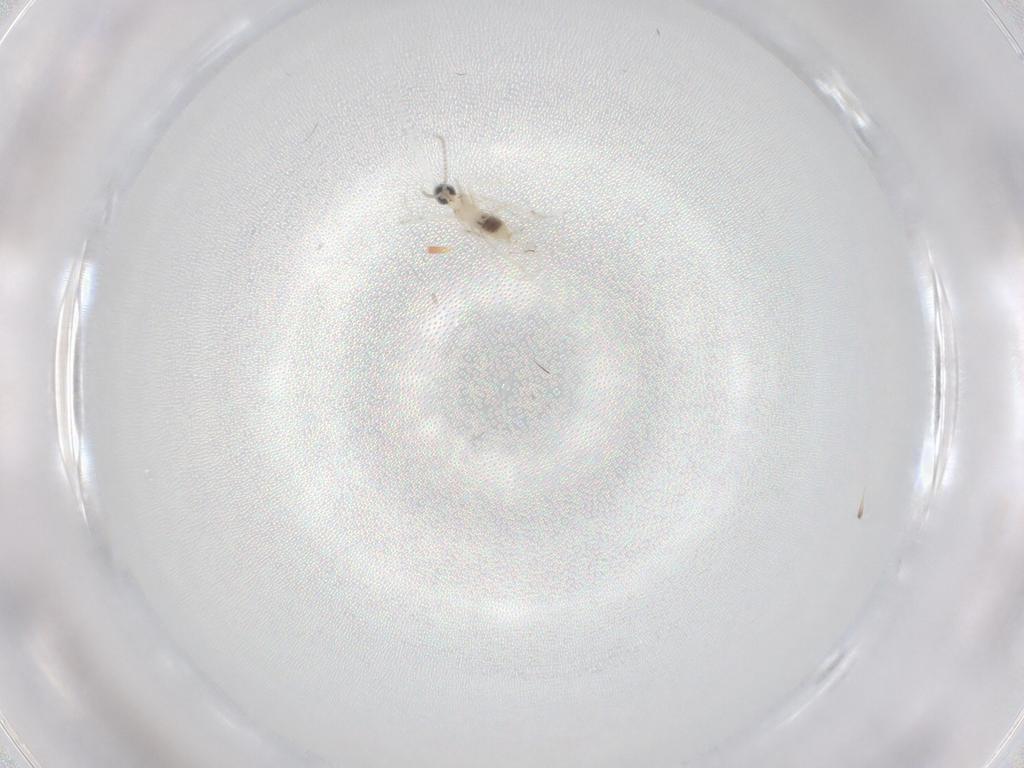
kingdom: Animalia
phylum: Arthropoda
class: Insecta
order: Diptera
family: Cecidomyiidae
